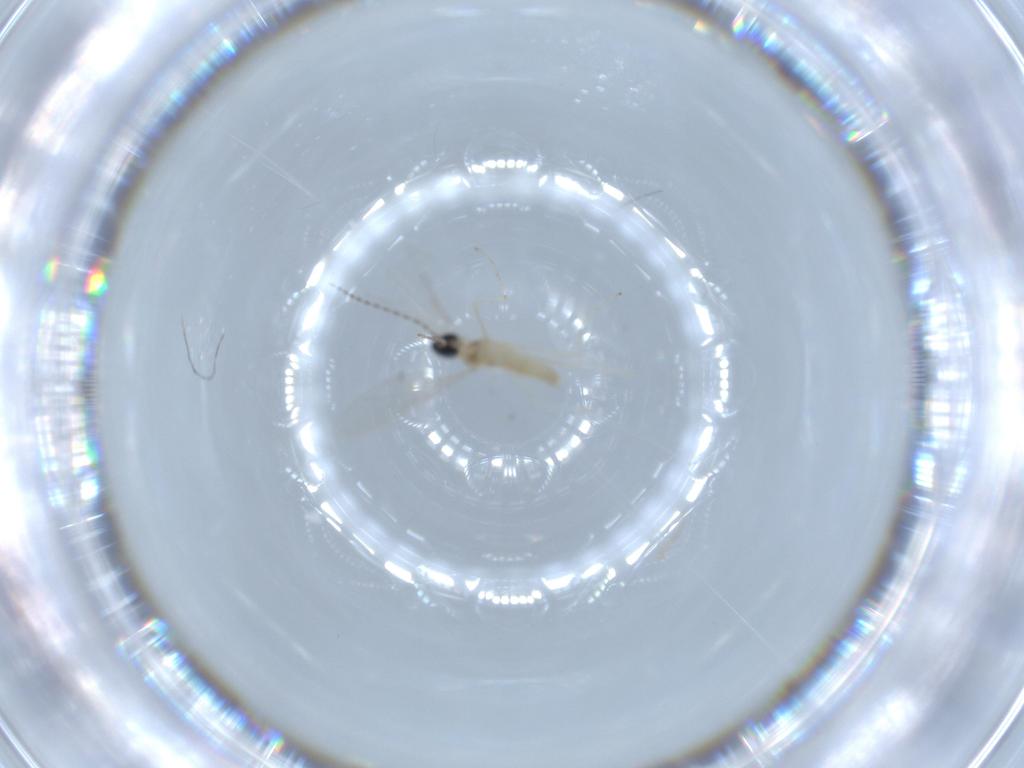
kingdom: Animalia
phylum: Arthropoda
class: Insecta
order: Diptera
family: Cecidomyiidae
